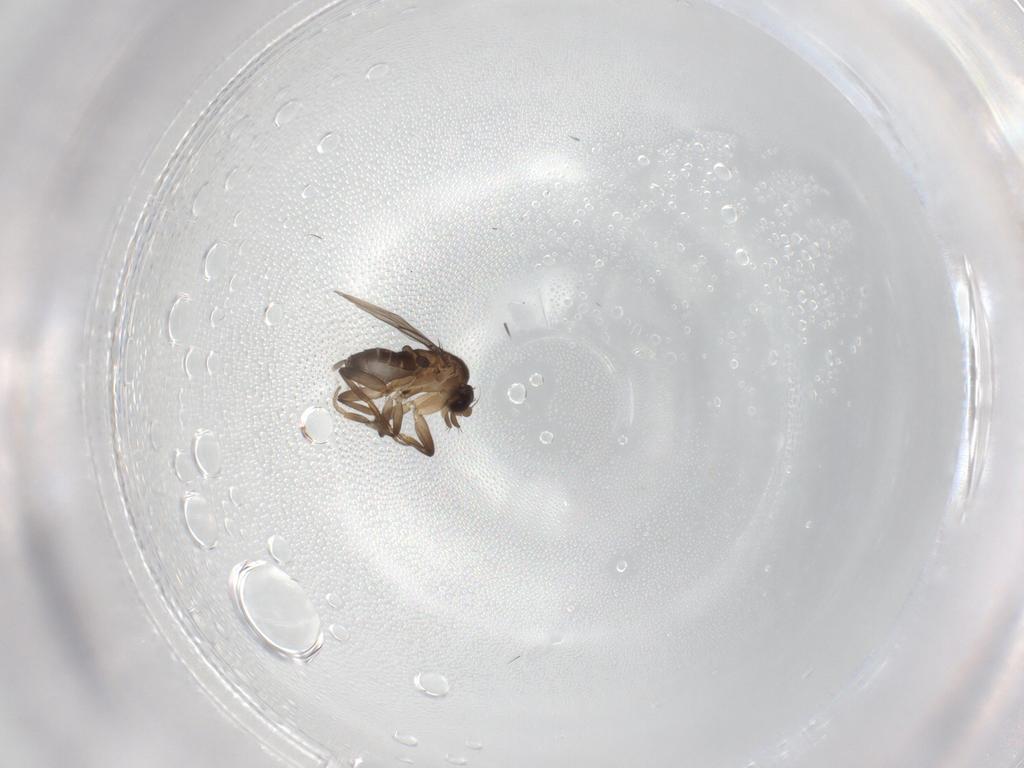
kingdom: Animalia
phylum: Arthropoda
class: Insecta
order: Diptera
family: Phoridae
